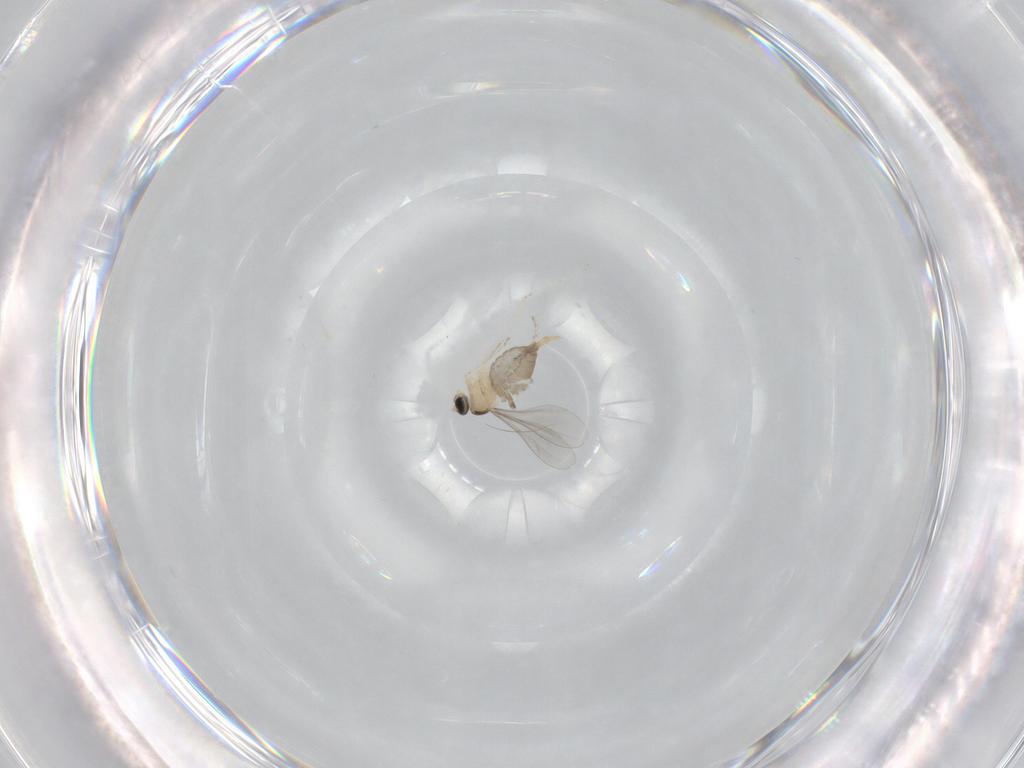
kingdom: Animalia
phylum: Arthropoda
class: Insecta
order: Diptera
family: Cecidomyiidae
